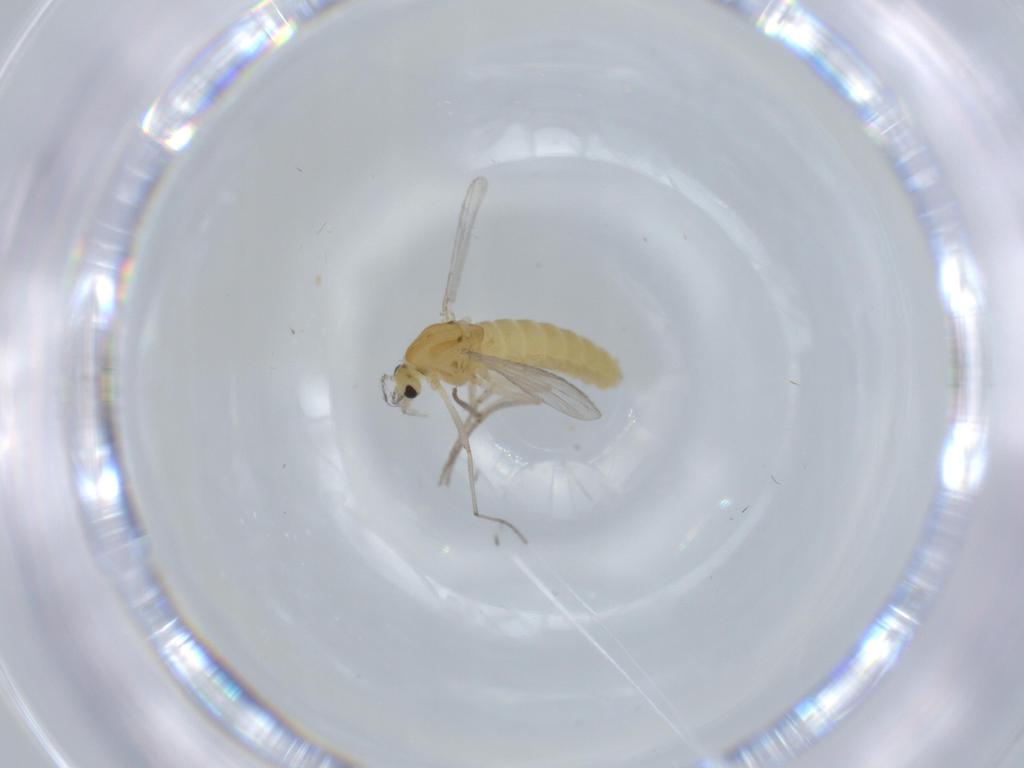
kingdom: Animalia
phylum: Arthropoda
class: Insecta
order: Diptera
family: Chironomidae
